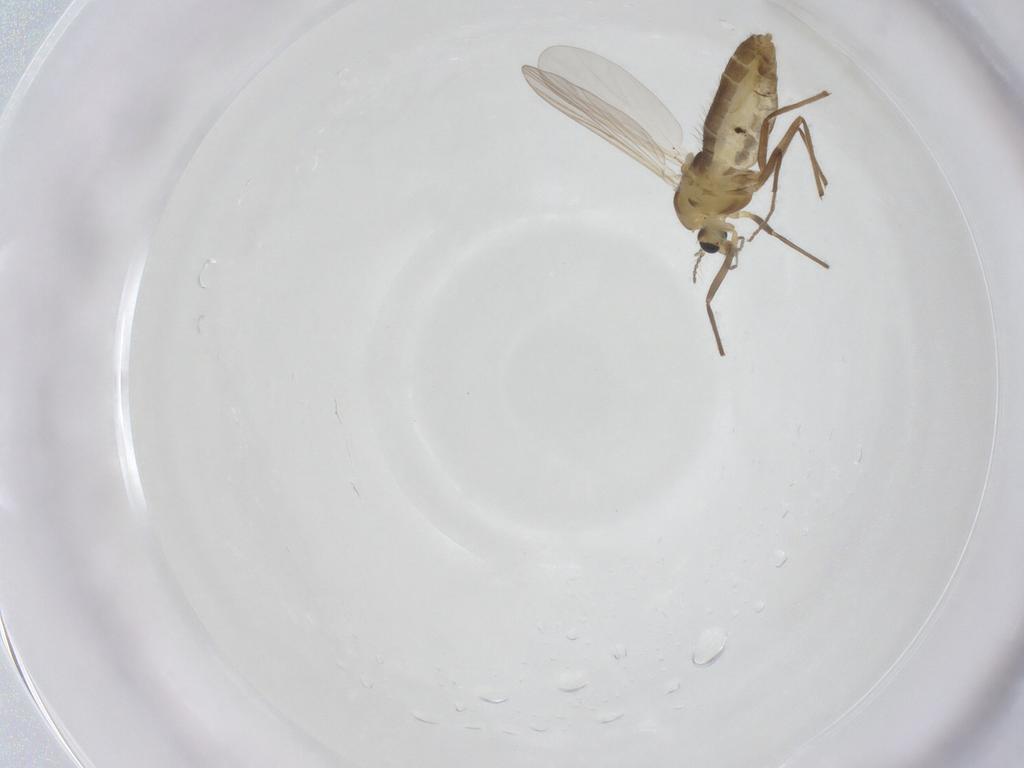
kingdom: Animalia
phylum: Arthropoda
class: Insecta
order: Diptera
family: Chironomidae
